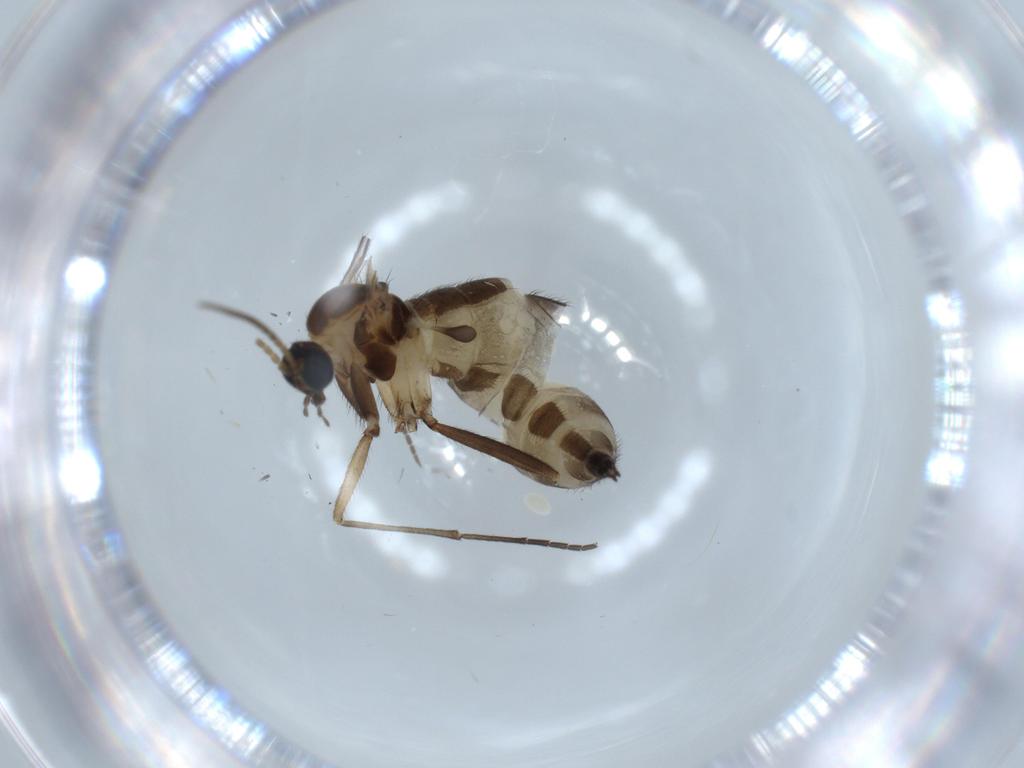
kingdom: Animalia
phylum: Arthropoda
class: Insecta
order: Diptera
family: Sciaridae
